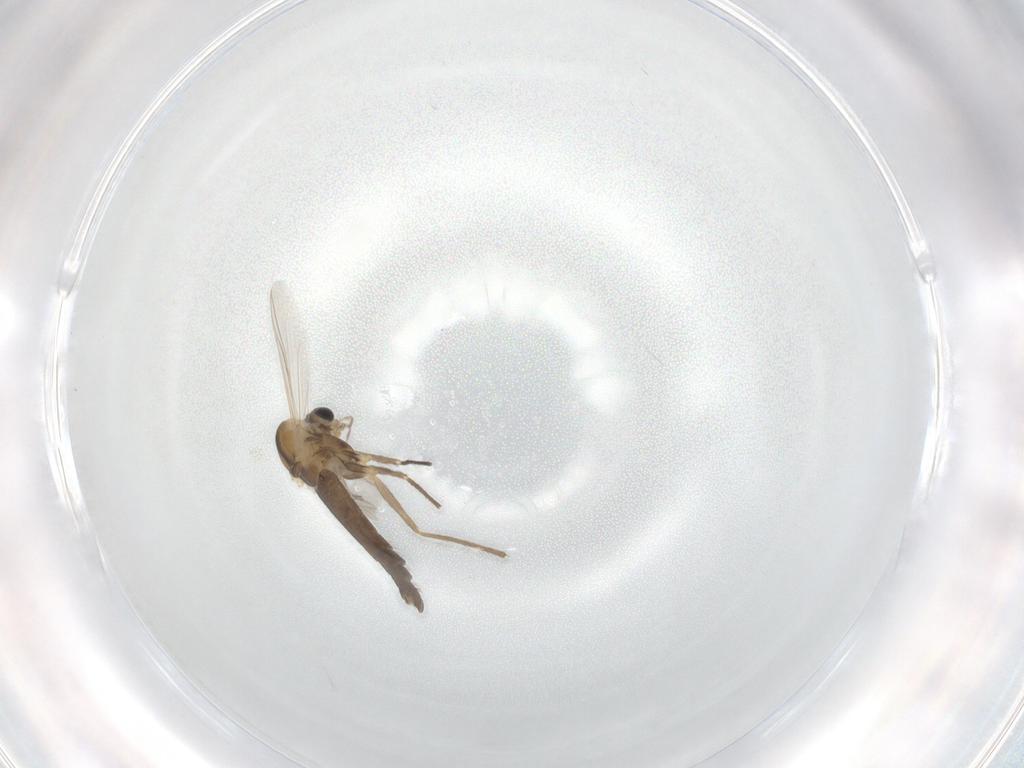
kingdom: Animalia
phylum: Arthropoda
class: Insecta
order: Diptera
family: Chironomidae
